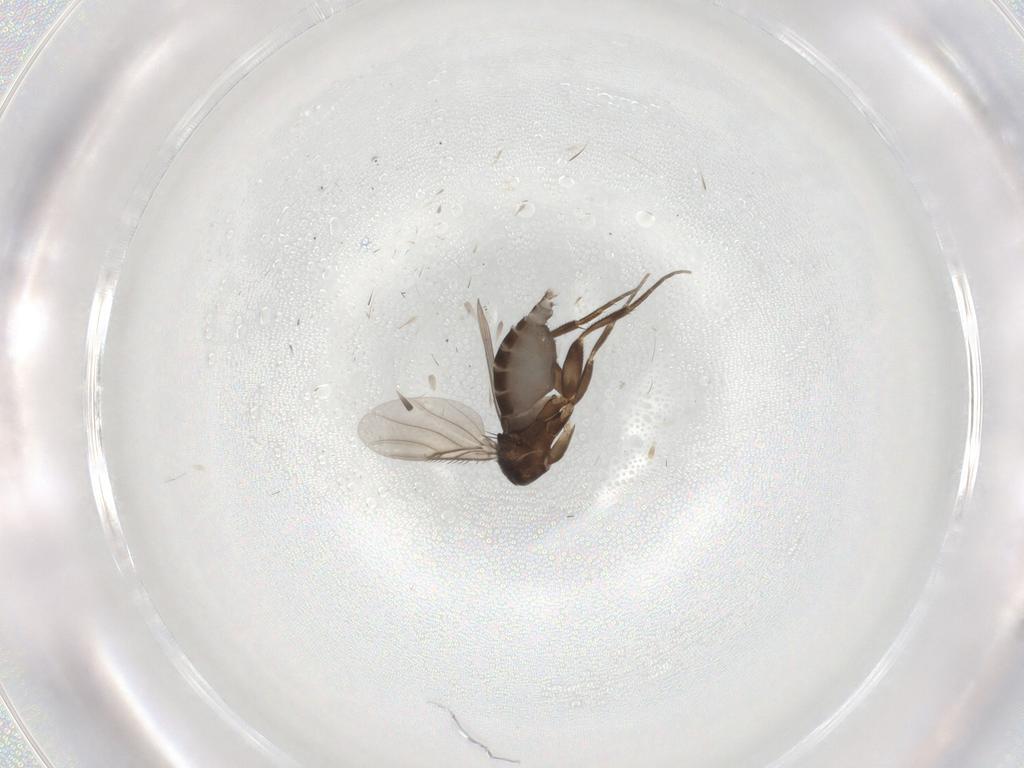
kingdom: Animalia
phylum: Arthropoda
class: Insecta
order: Diptera
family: Phoridae
